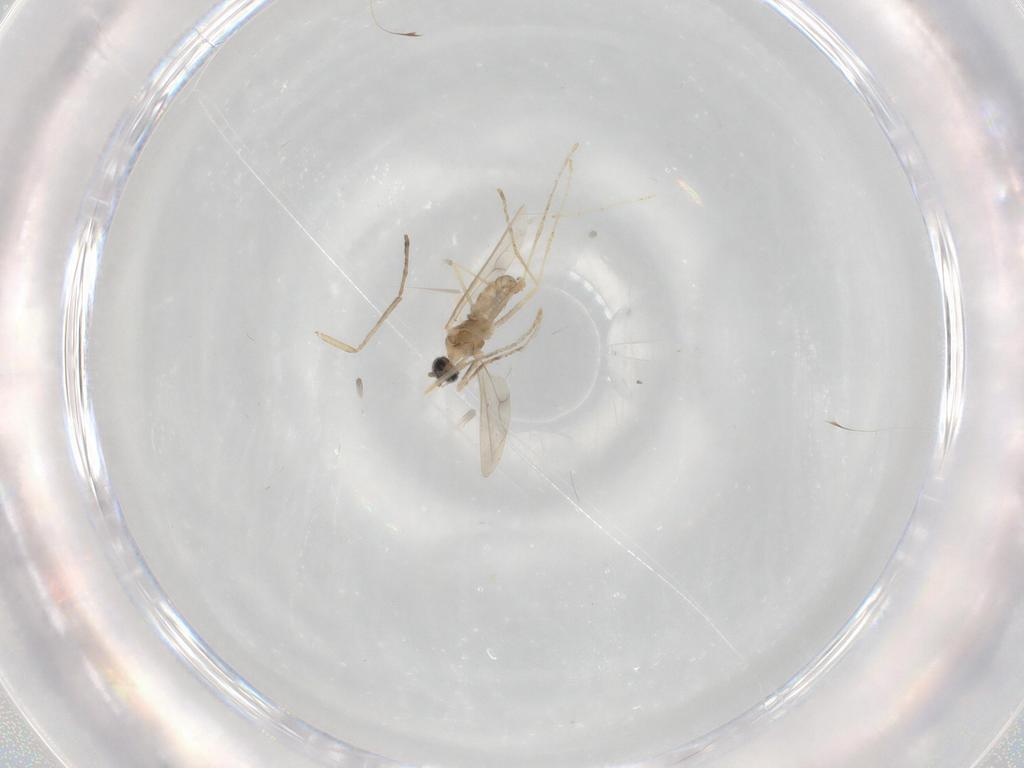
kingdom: Animalia
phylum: Arthropoda
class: Insecta
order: Diptera
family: Cecidomyiidae
